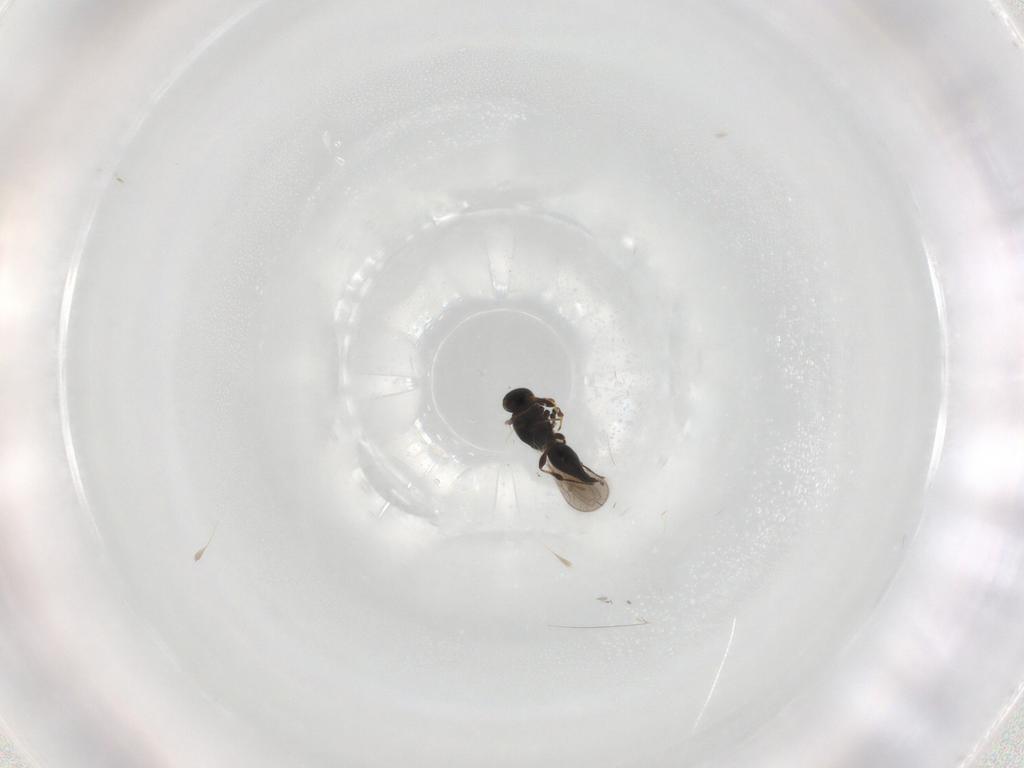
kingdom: Animalia
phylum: Arthropoda
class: Insecta
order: Hymenoptera
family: Platygastridae
